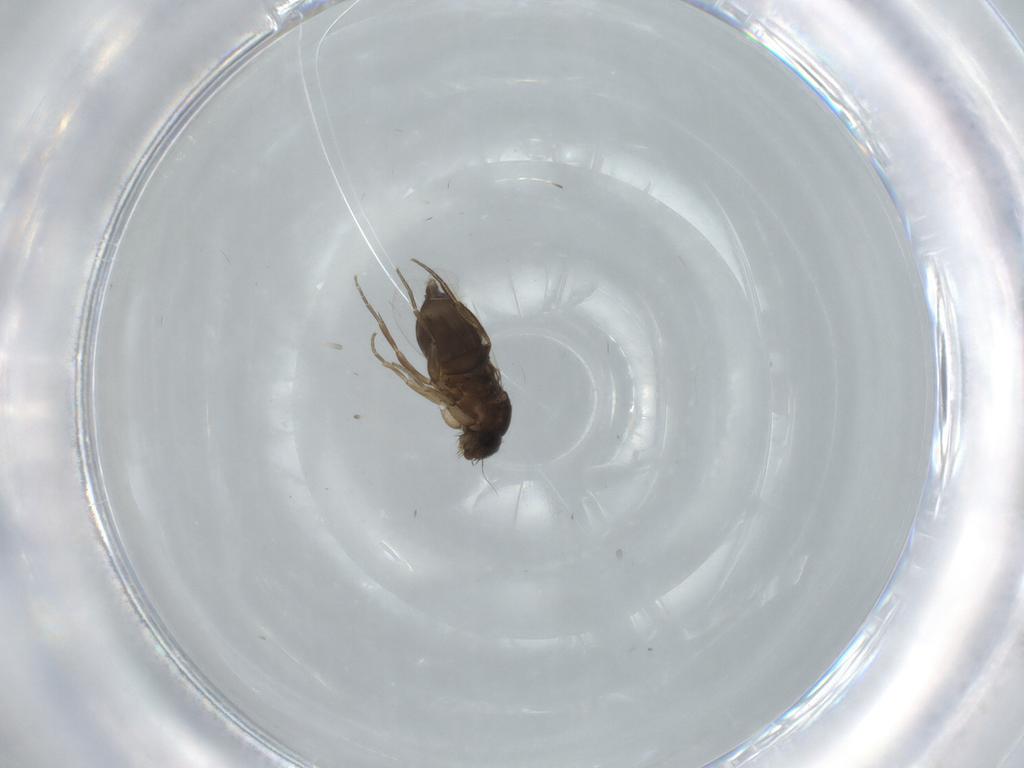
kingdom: Animalia
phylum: Arthropoda
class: Insecta
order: Diptera
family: Phoridae
